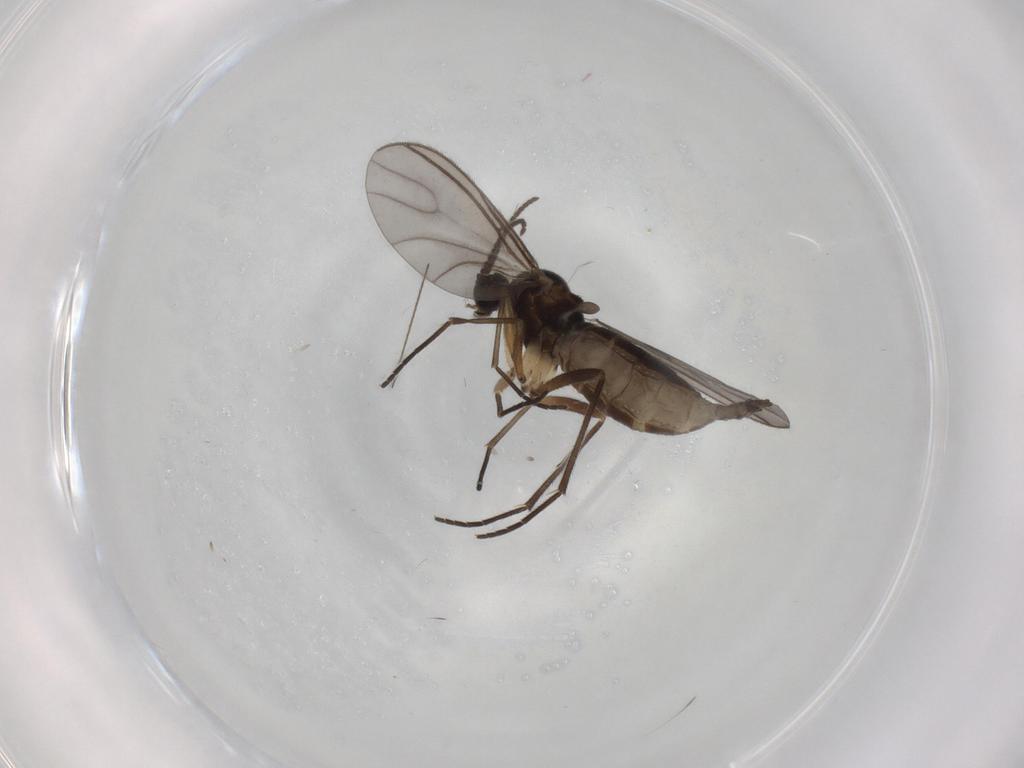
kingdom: Animalia
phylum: Arthropoda
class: Insecta
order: Diptera
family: Sciaridae
